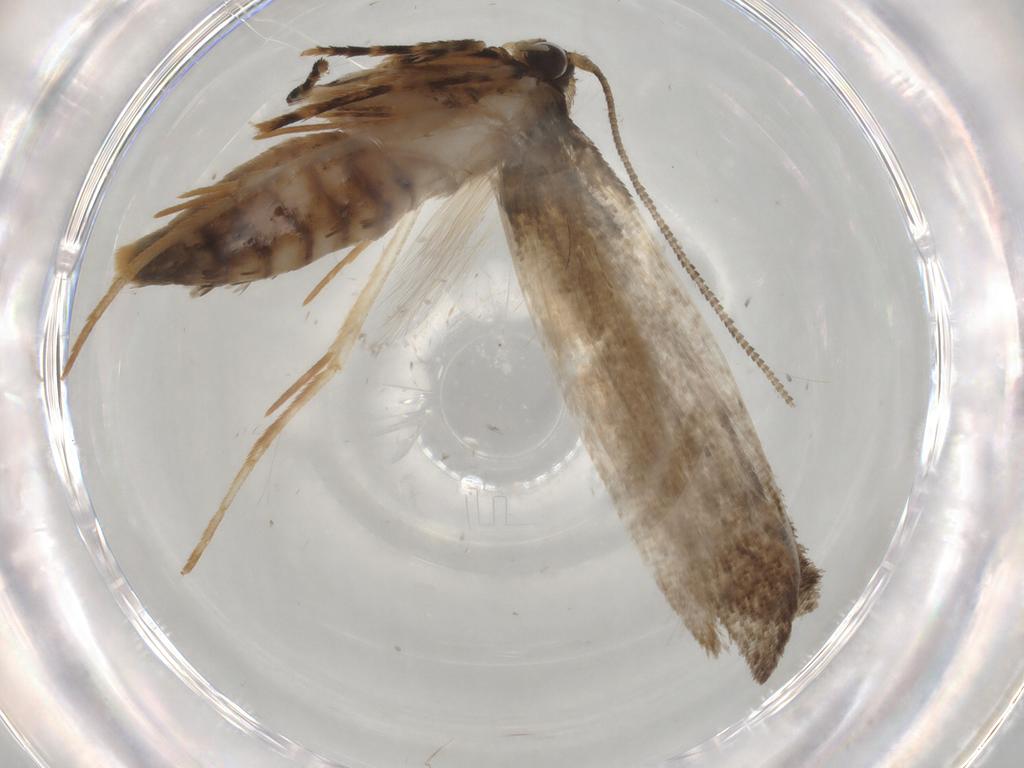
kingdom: Animalia
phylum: Arthropoda
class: Insecta
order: Lepidoptera
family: Tineidae
